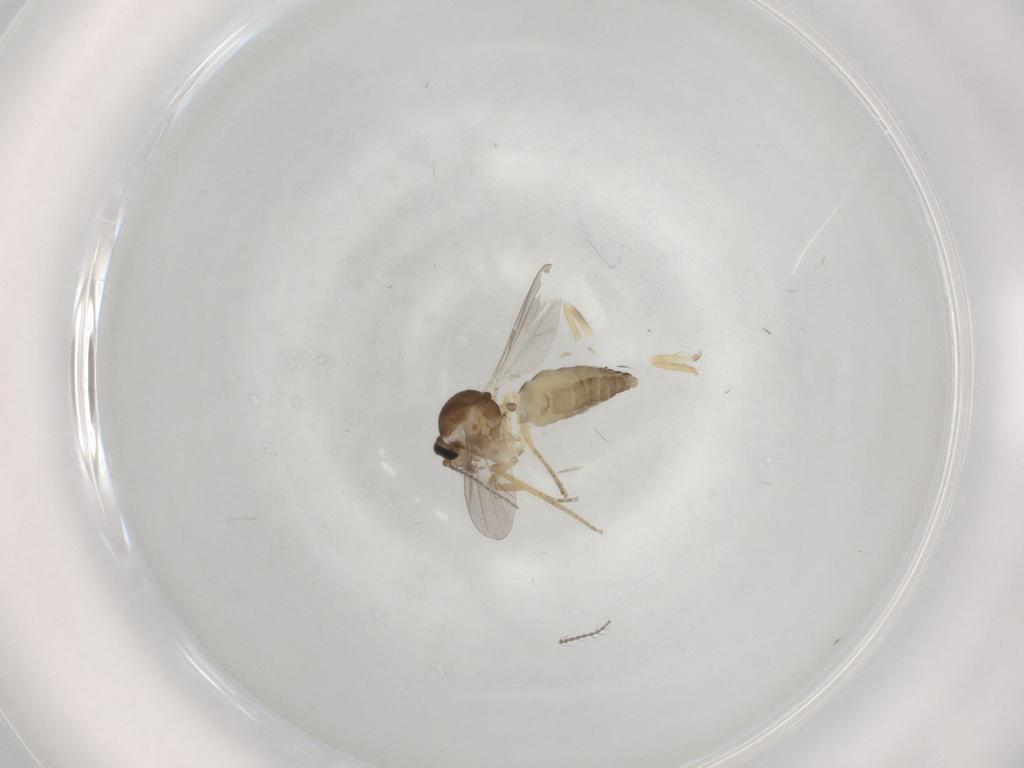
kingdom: Animalia
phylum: Arthropoda
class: Insecta
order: Diptera
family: Ceratopogonidae
